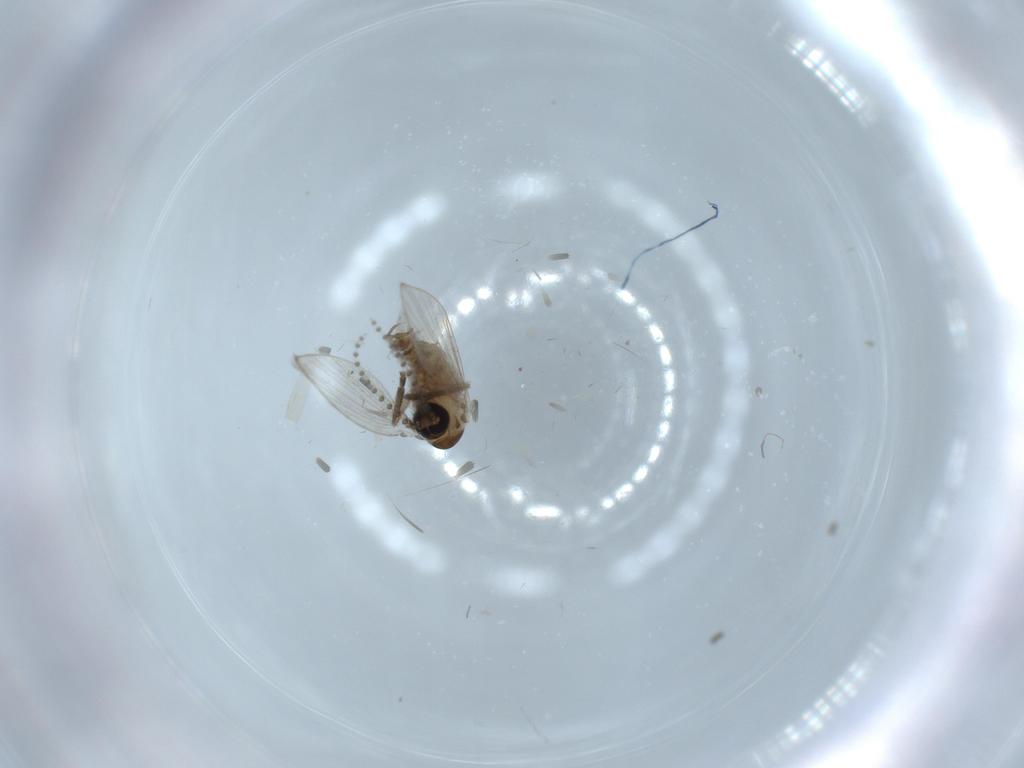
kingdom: Animalia
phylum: Arthropoda
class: Insecta
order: Diptera
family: Psychodidae
